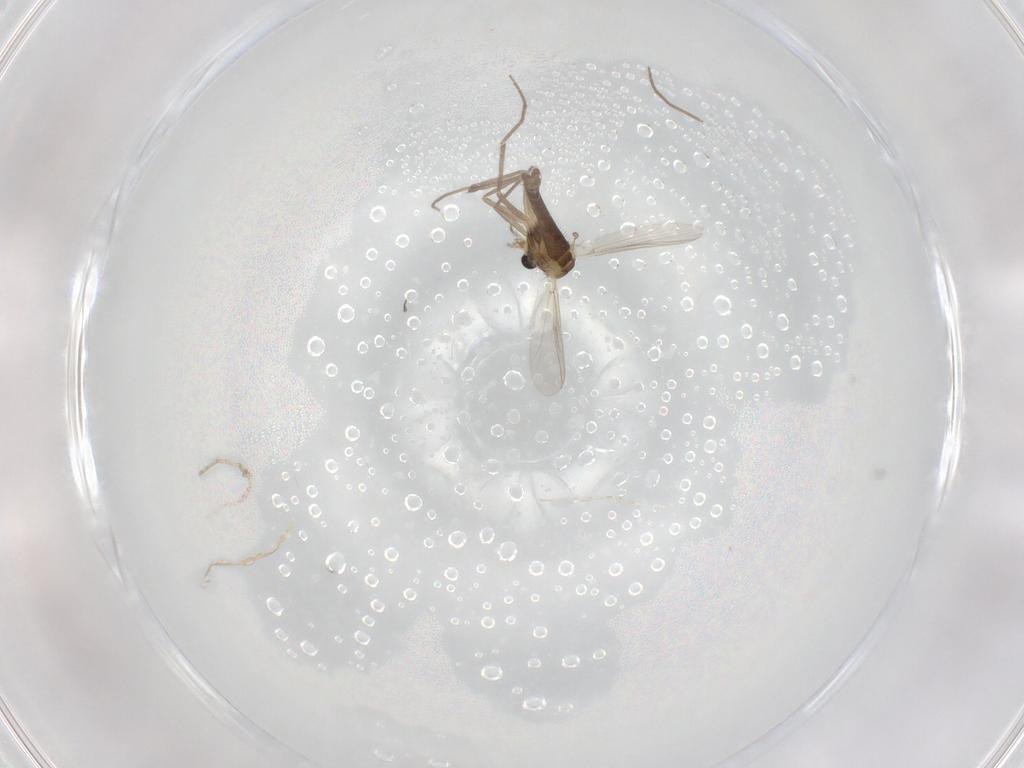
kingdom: Animalia
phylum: Arthropoda
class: Insecta
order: Diptera
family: Chironomidae
